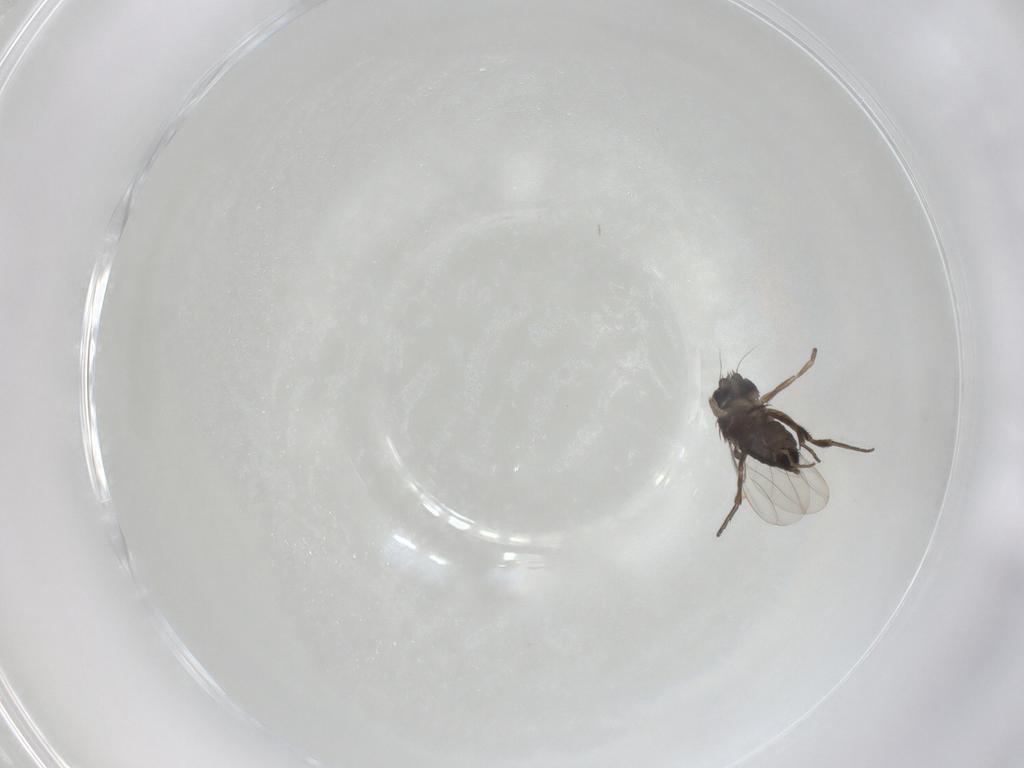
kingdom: Animalia
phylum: Arthropoda
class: Insecta
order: Diptera
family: Phoridae
